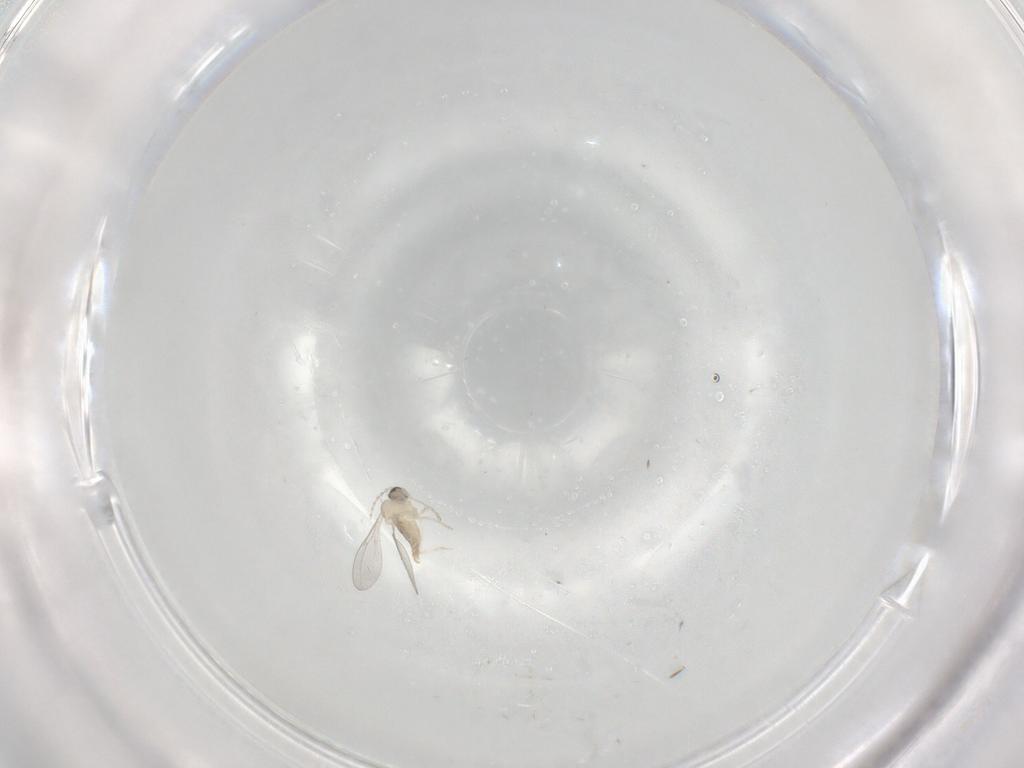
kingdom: Animalia
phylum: Arthropoda
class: Insecta
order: Diptera
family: Cecidomyiidae
